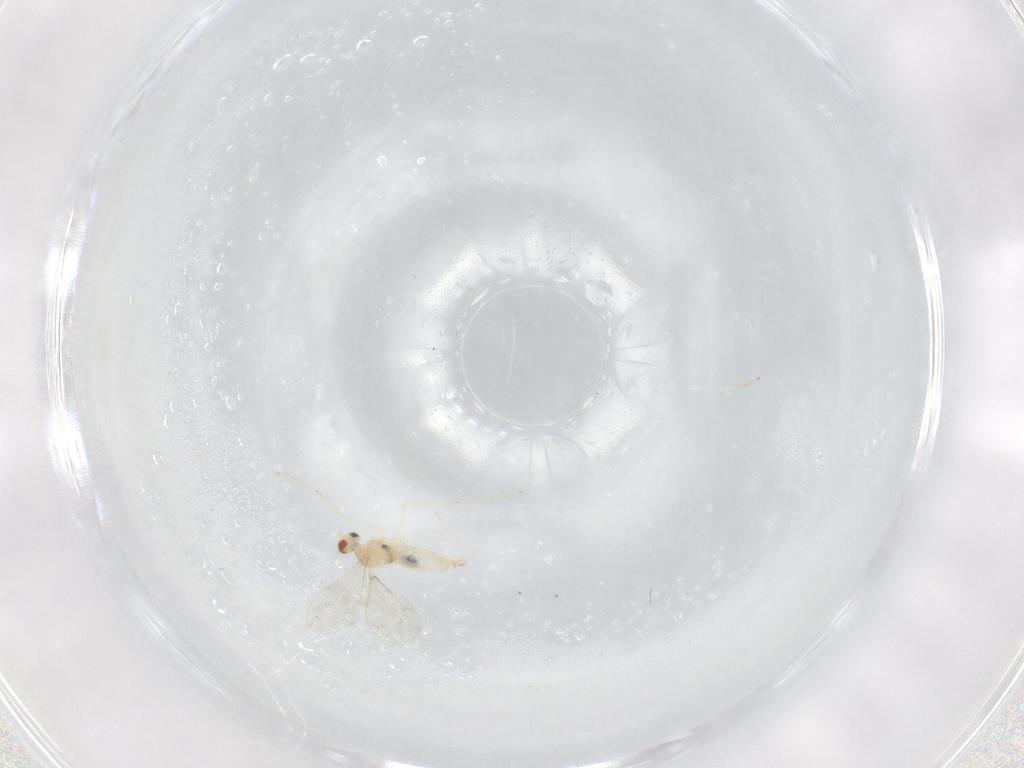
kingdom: Animalia
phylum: Arthropoda
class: Insecta
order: Diptera
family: Cecidomyiidae
